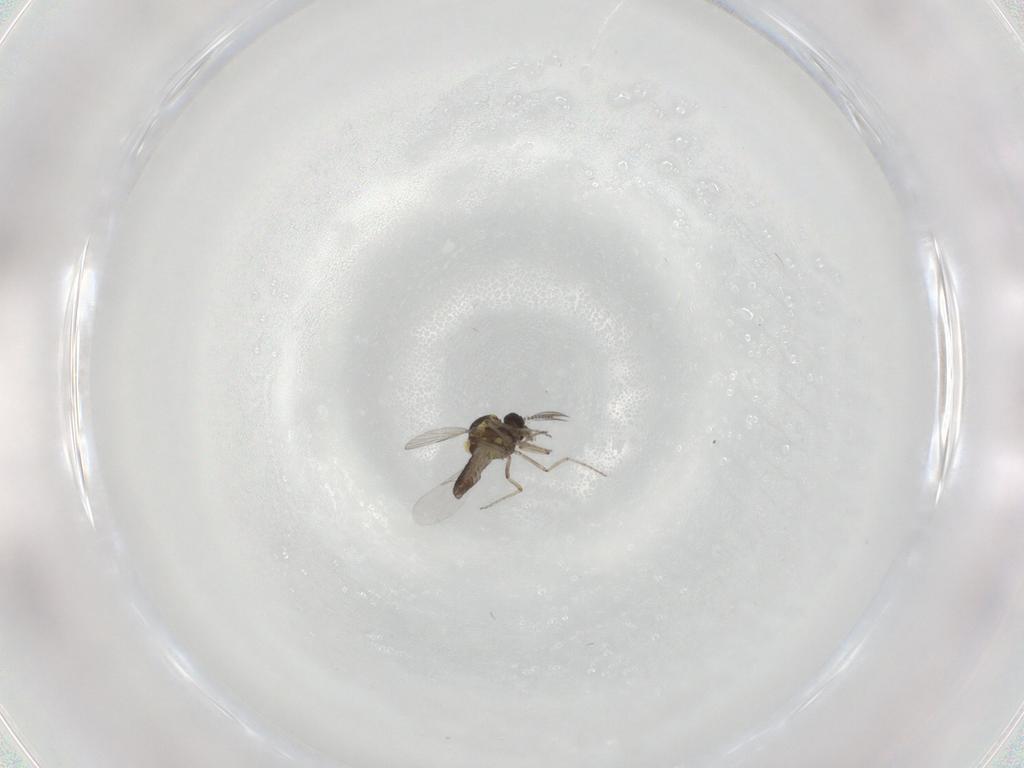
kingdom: Animalia
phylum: Arthropoda
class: Insecta
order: Diptera
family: Ceratopogonidae
